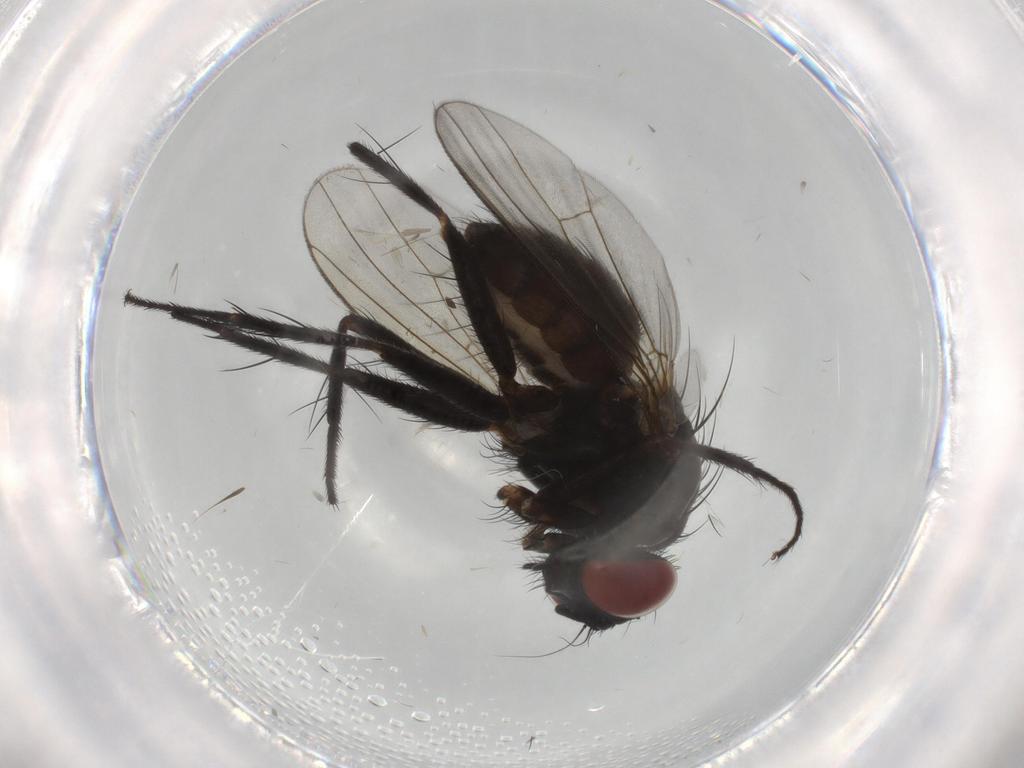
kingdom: Animalia
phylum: Arthropoda
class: Insecta
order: Diptera
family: Muscidae
